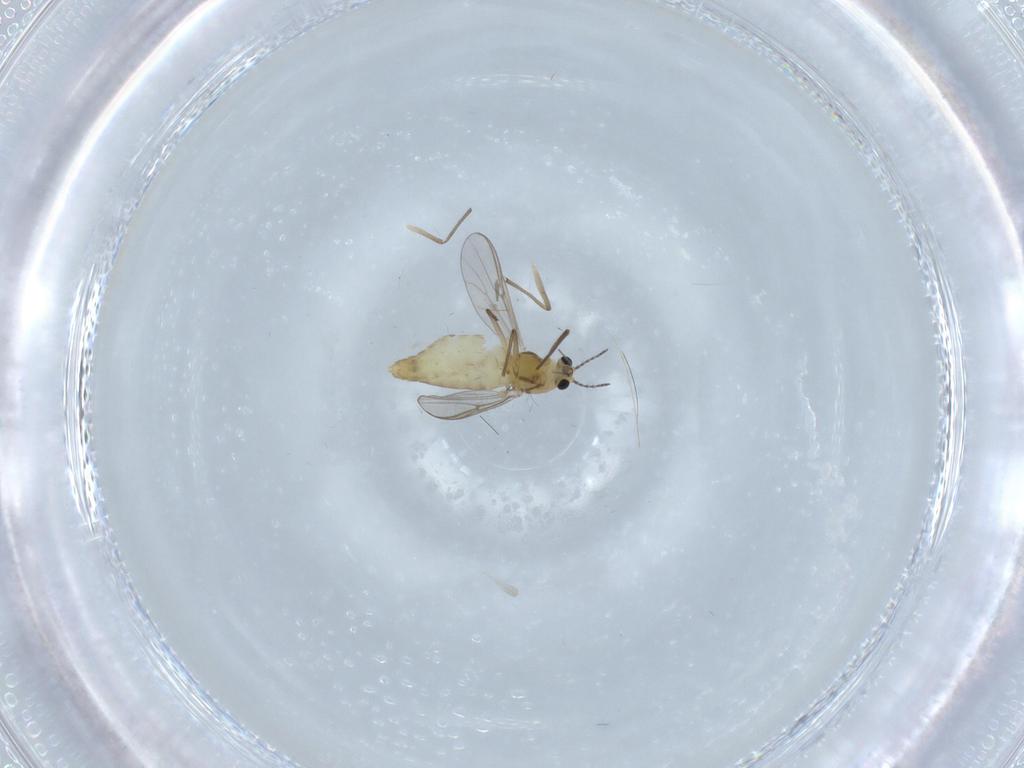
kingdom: Animalia
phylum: Arthropoda
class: Insecta
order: Diptera
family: Chironomidae
